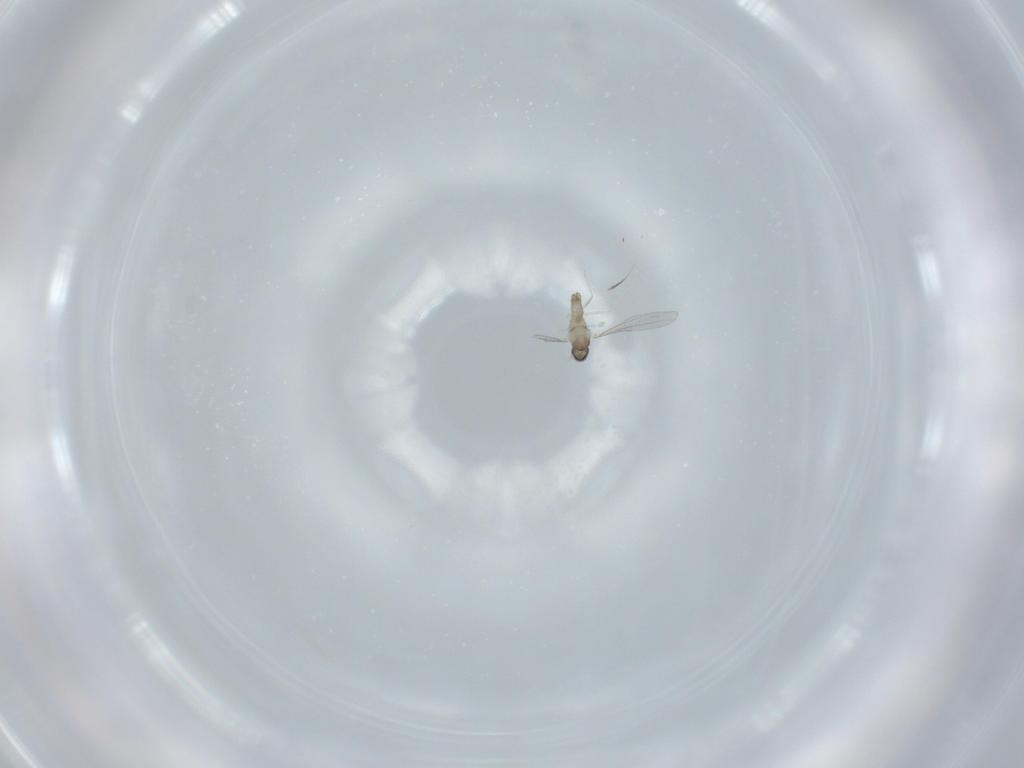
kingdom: Animalia
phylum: Arthropoda
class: Insecta
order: Diptera
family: Cecidomyiidae
